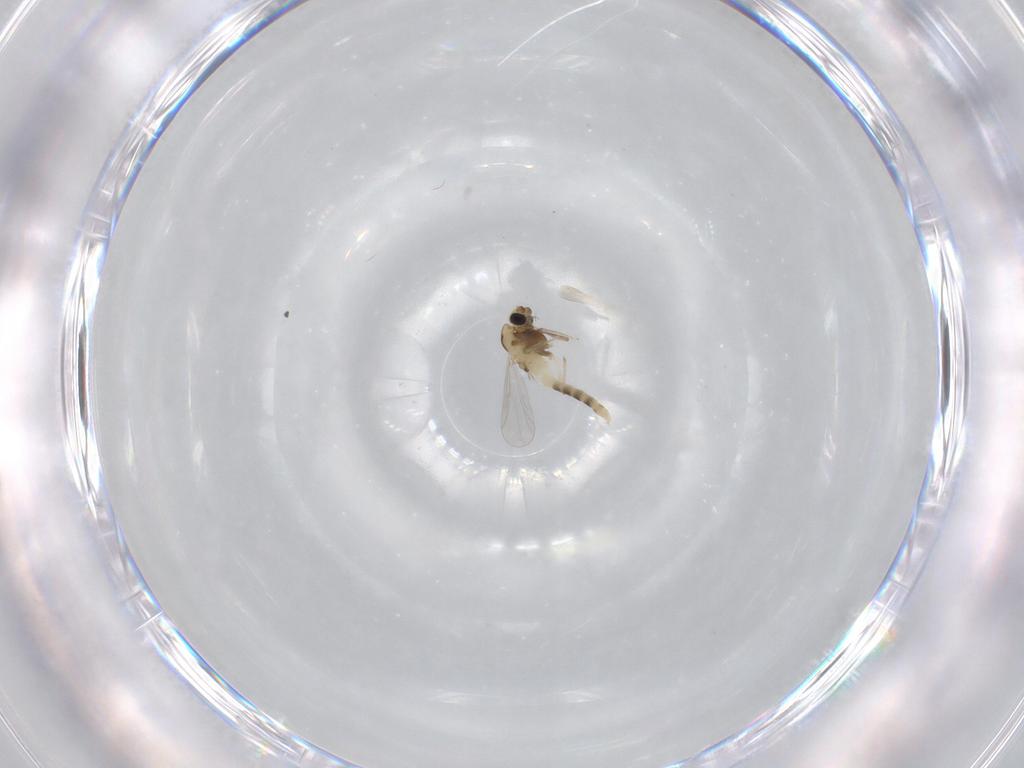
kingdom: Animalia
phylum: Arthropoda
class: Insecta
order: Diptera
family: Chironomidae
